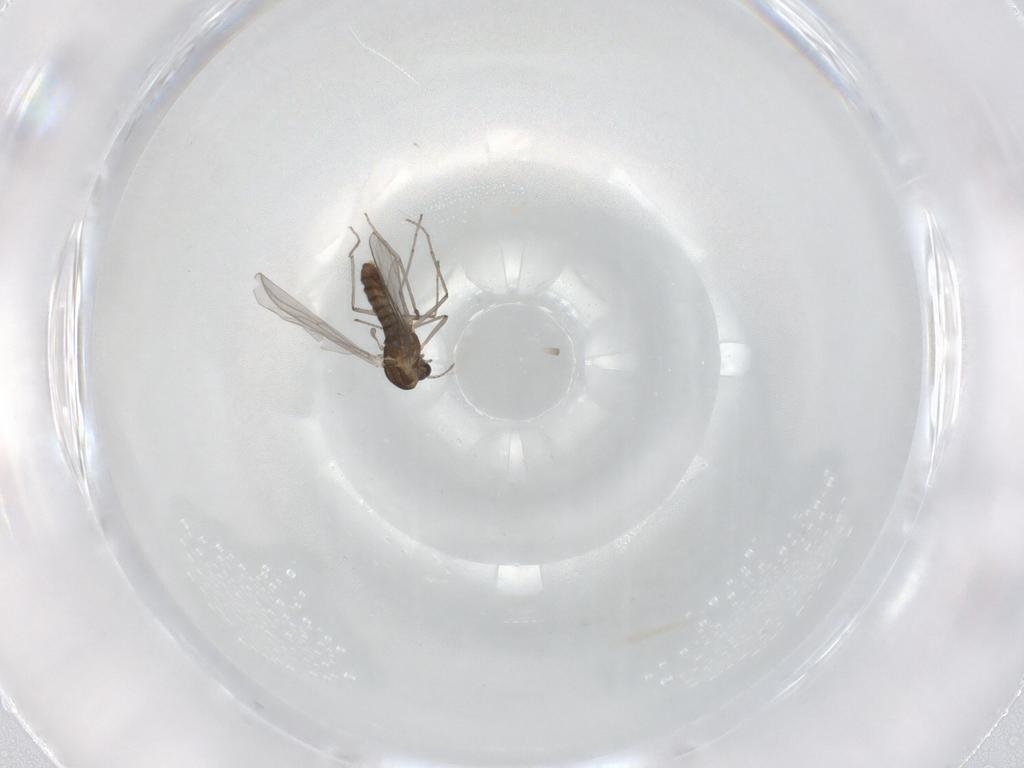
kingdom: Animalia
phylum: Arthropoda
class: Insecta
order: Diptera
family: Chironomidae
